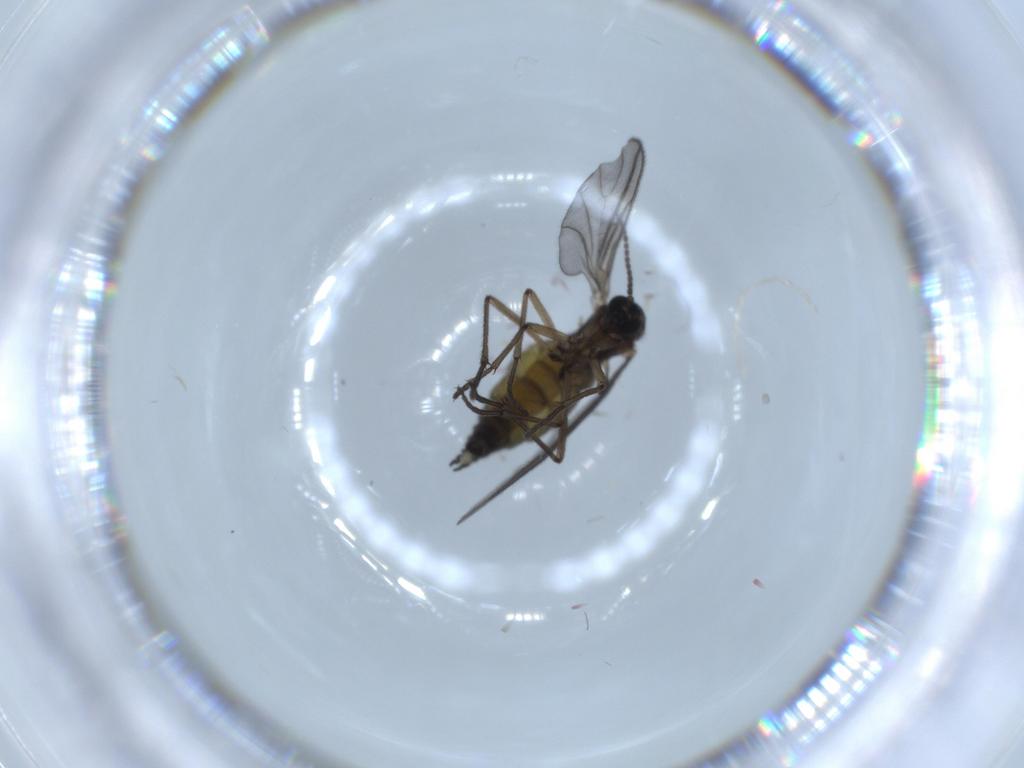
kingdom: Animalia
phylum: Arthropoda
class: Insecta
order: Diptera
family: Sciaridae
